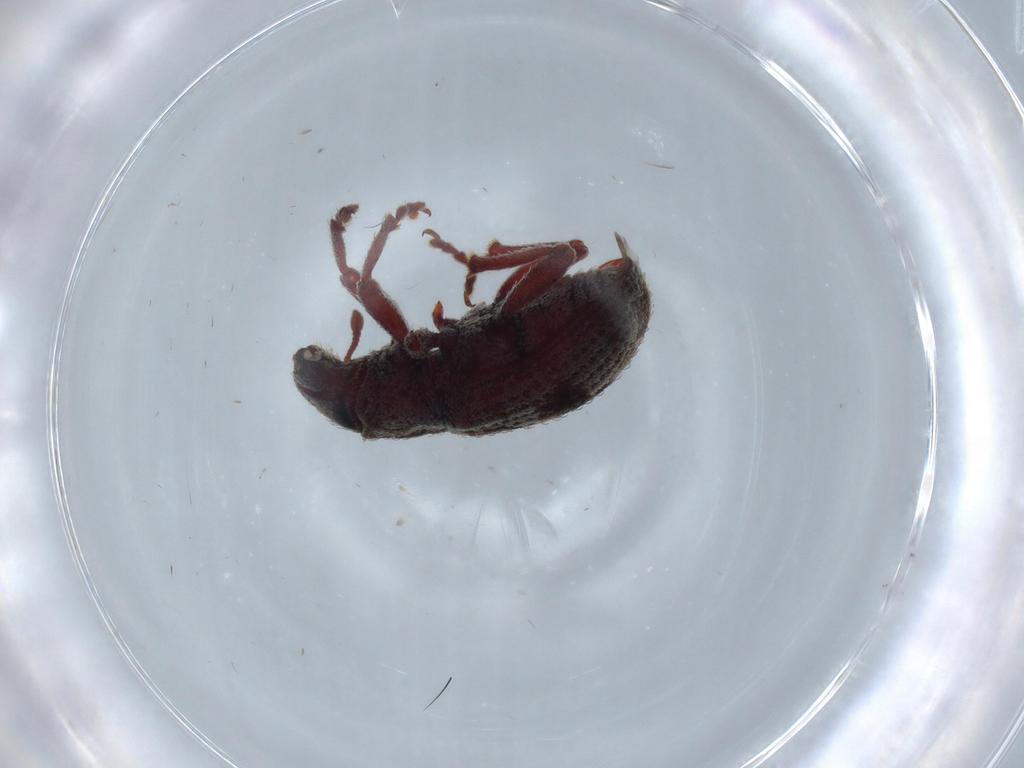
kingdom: Animalia
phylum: Arthropoda
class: Insecta
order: Coleoptera
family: Curculionidae
